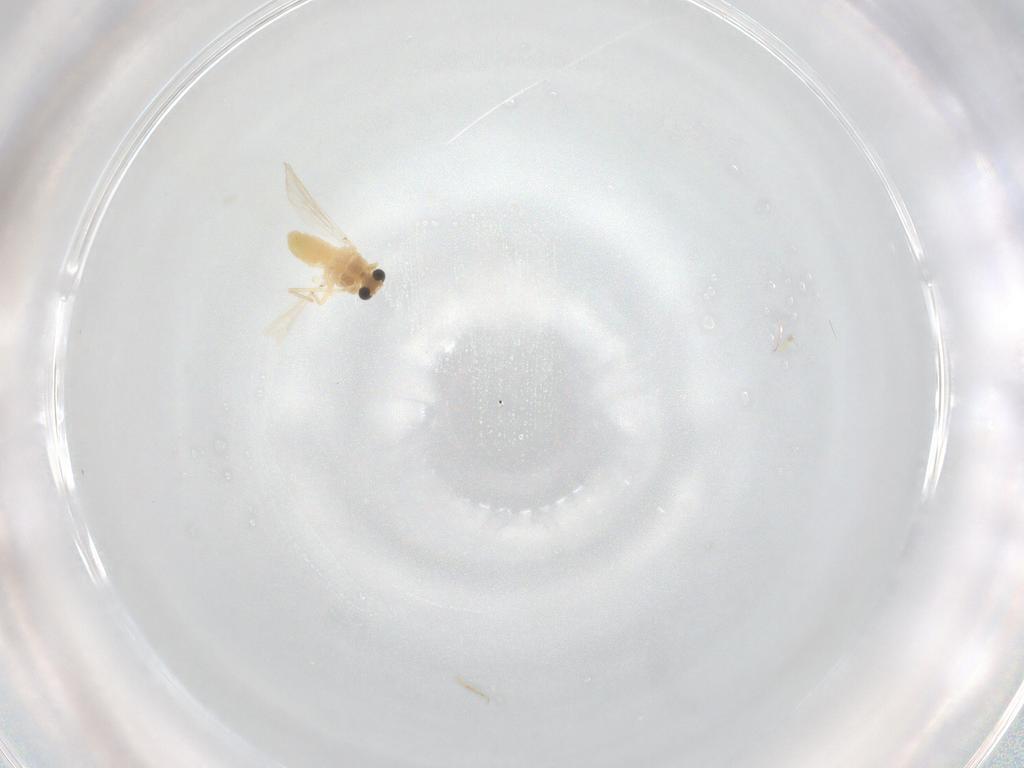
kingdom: Animalia
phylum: Arthropoda
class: Insecta
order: Diptera
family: Chironomidae
